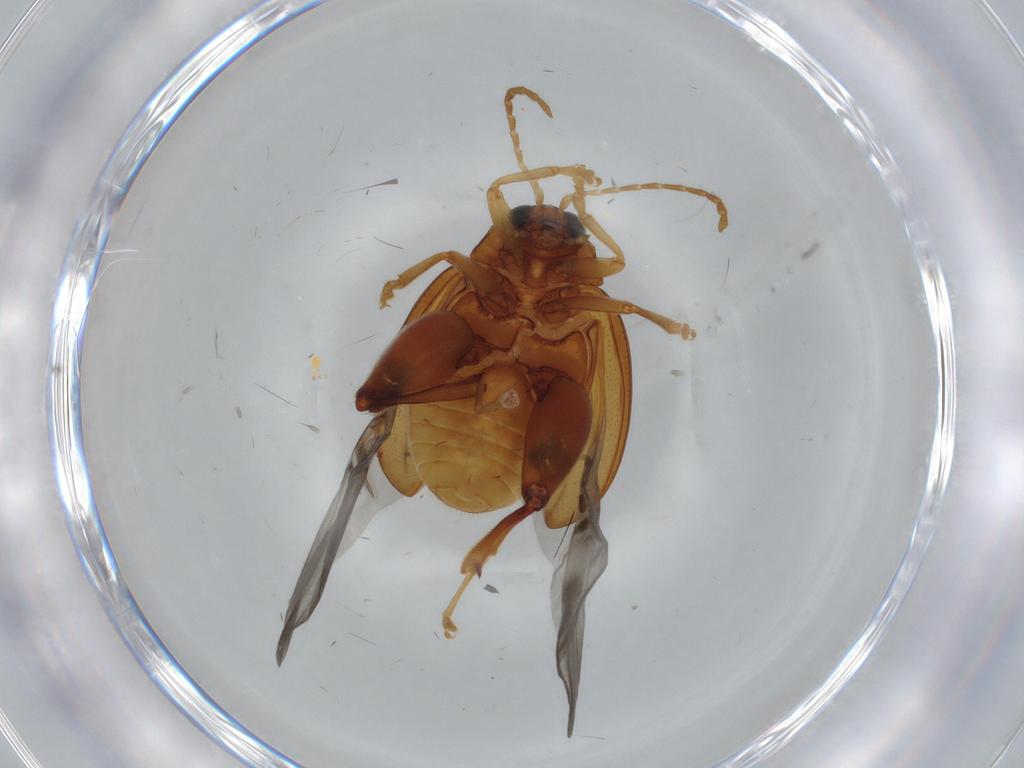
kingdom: Animalia
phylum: Arthropoda
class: Insecta
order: Coleoptera
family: Chrysomelidae
